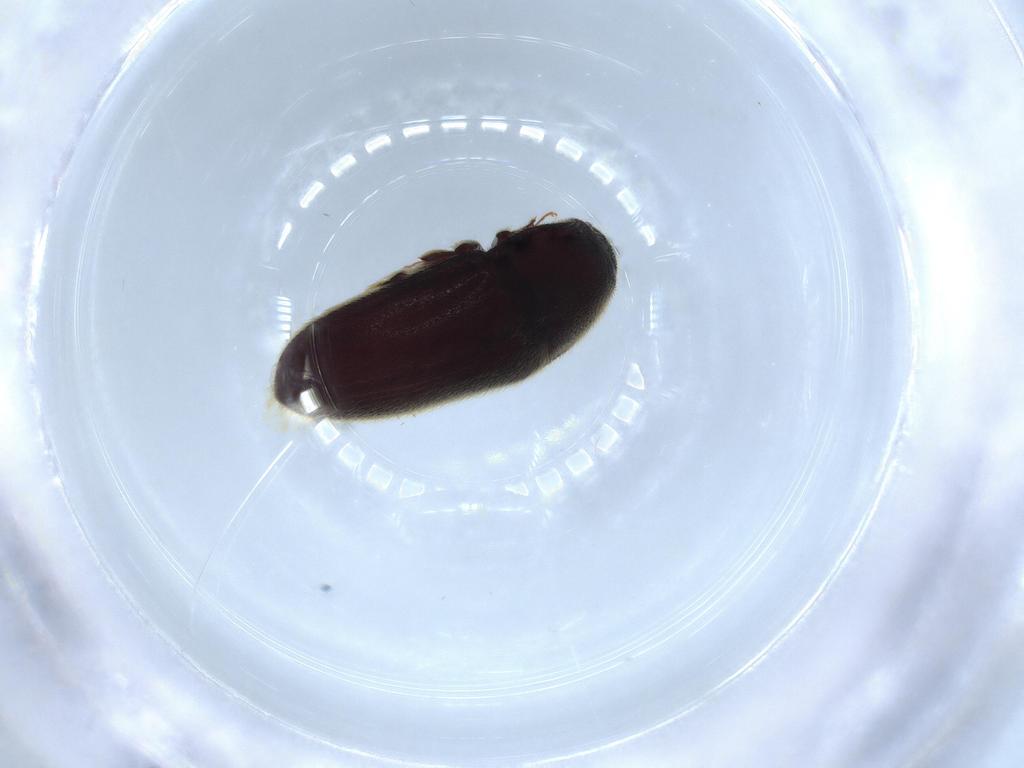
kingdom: Animalia
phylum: Arthropoda
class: Insecta
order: Coleoptera
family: Throscidae
